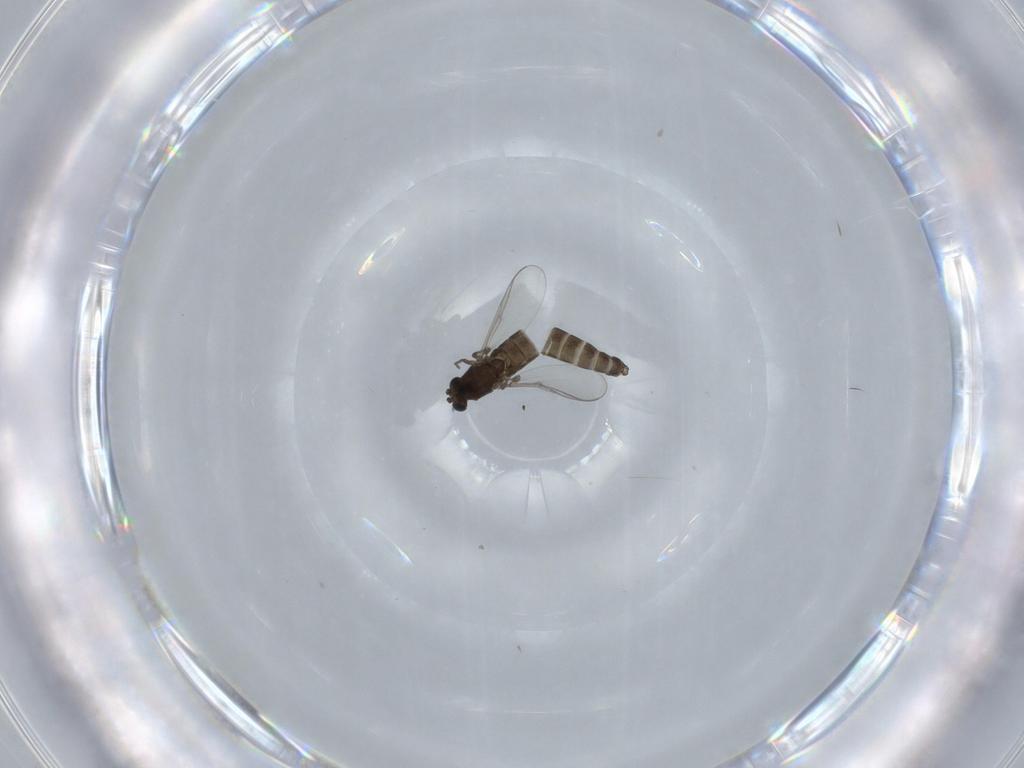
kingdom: Animalia
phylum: Arthropoda
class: Insecta
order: Diptera
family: Chironomidae
